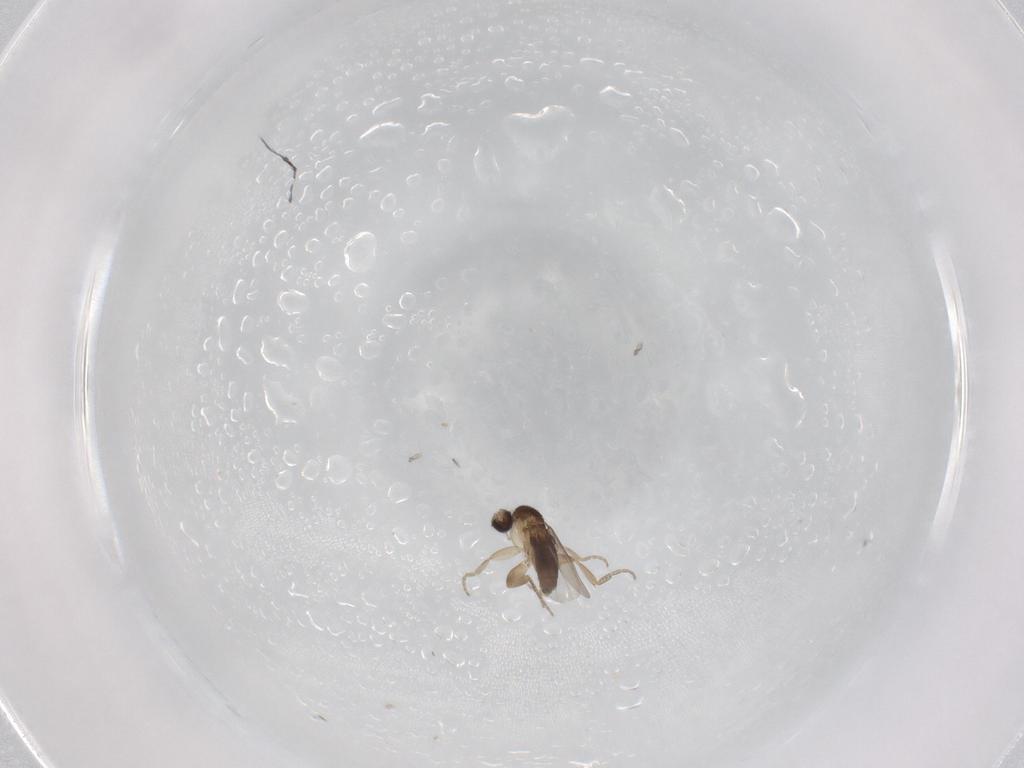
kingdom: Animalia
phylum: Arthropoda
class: Insecta
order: Diptera
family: Phoridae
